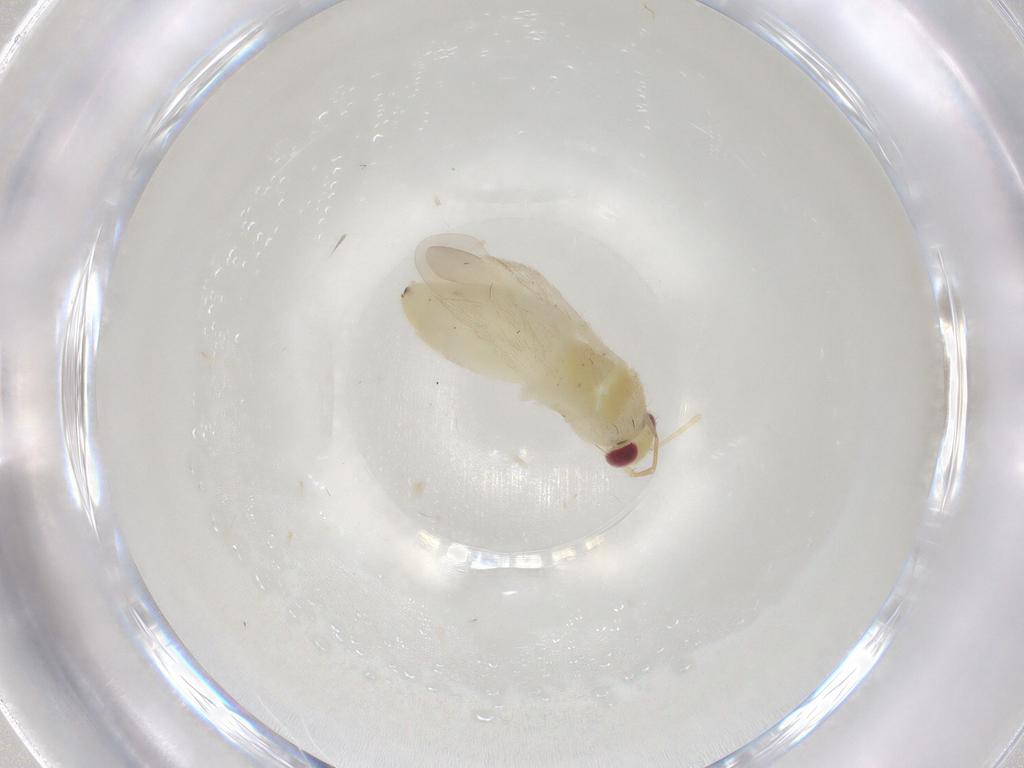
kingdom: Animalia
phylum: Arthropoda
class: Insecta
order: Hemiptera
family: Miridae
